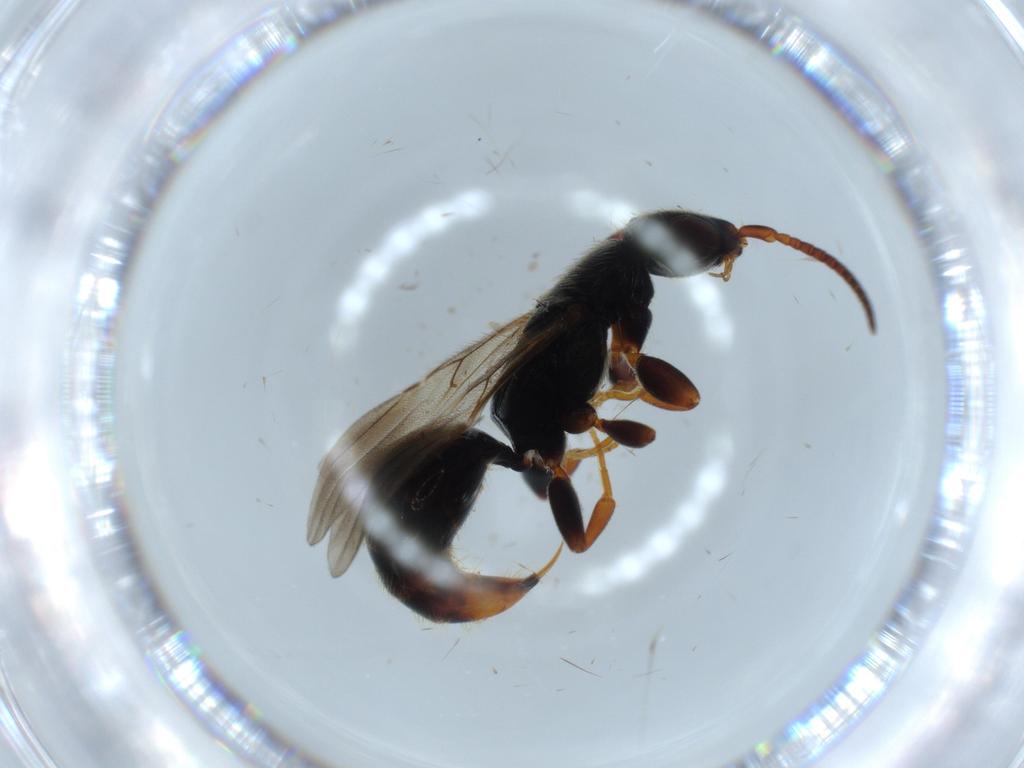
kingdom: Animalia
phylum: Arthropoda
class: Insecta
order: Hymenoptera
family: Bethylidae
